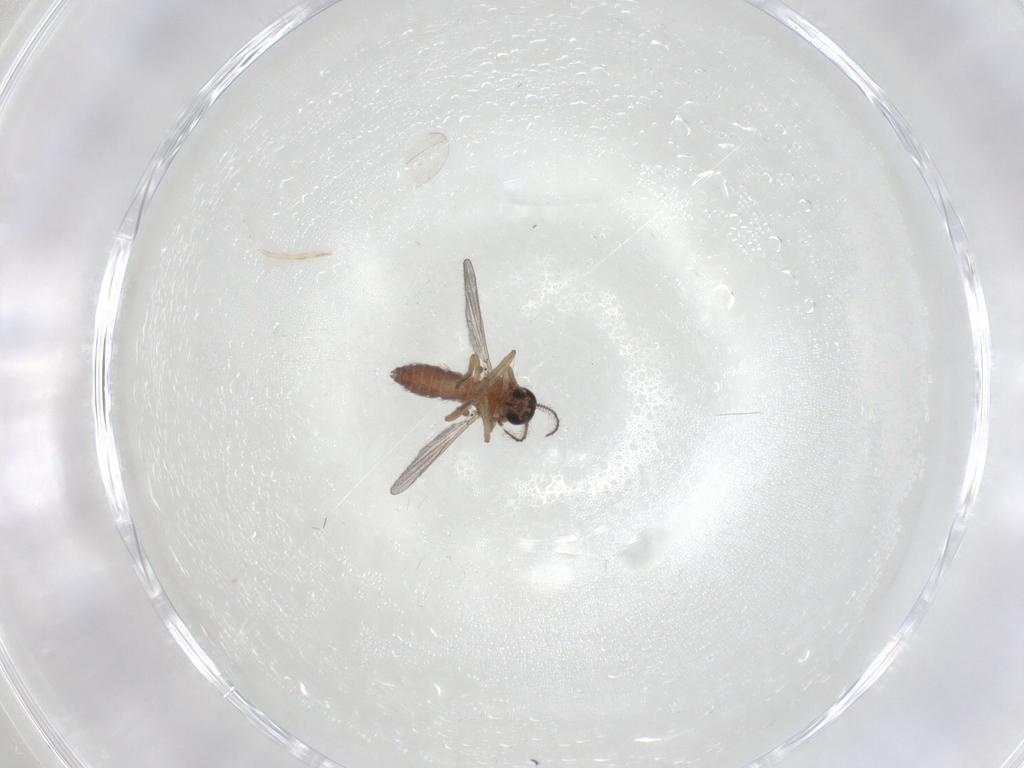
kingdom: Animalia
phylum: Arthropoda
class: Insecta
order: Diptera
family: Ceratopogonidae
